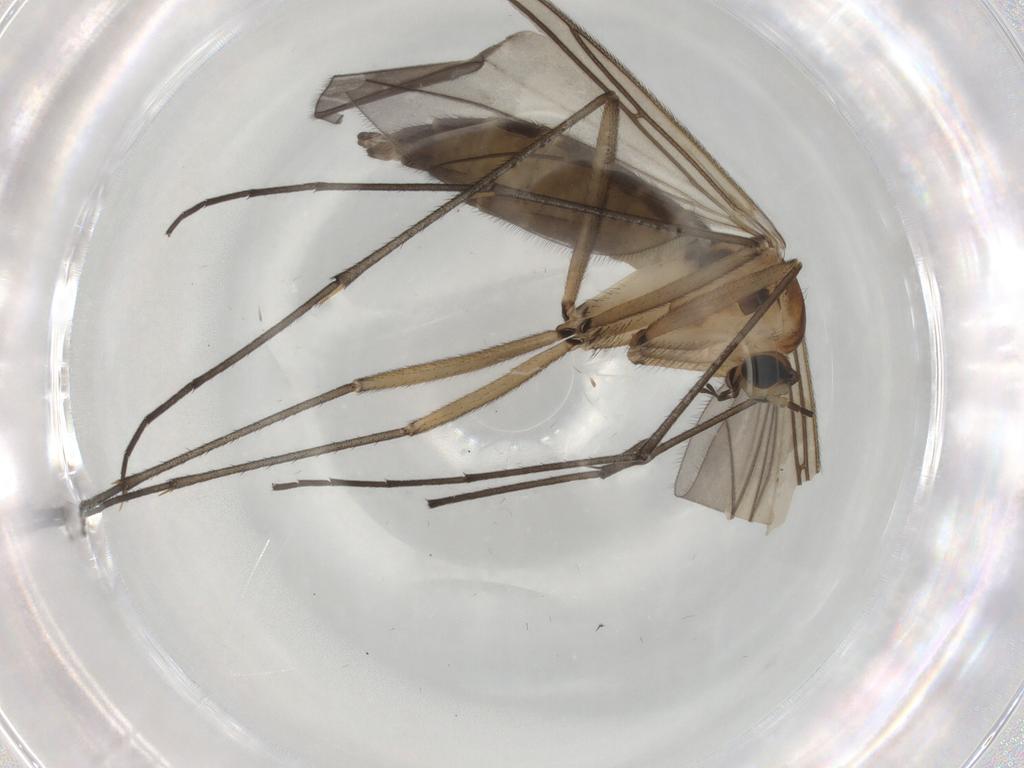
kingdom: Animalia
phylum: Arthropoda
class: Insecta
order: Diptera
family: Sciaridae
